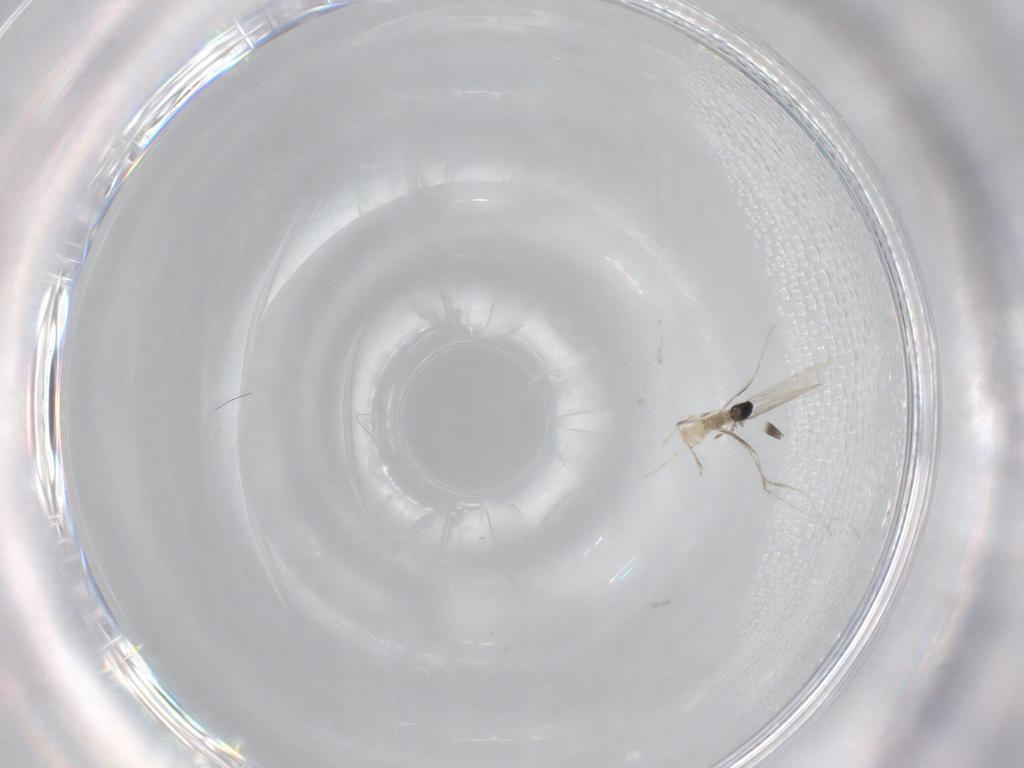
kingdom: Animalia
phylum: Arthropoda
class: Insecta
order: Diptera
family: Cecidomyiidae
